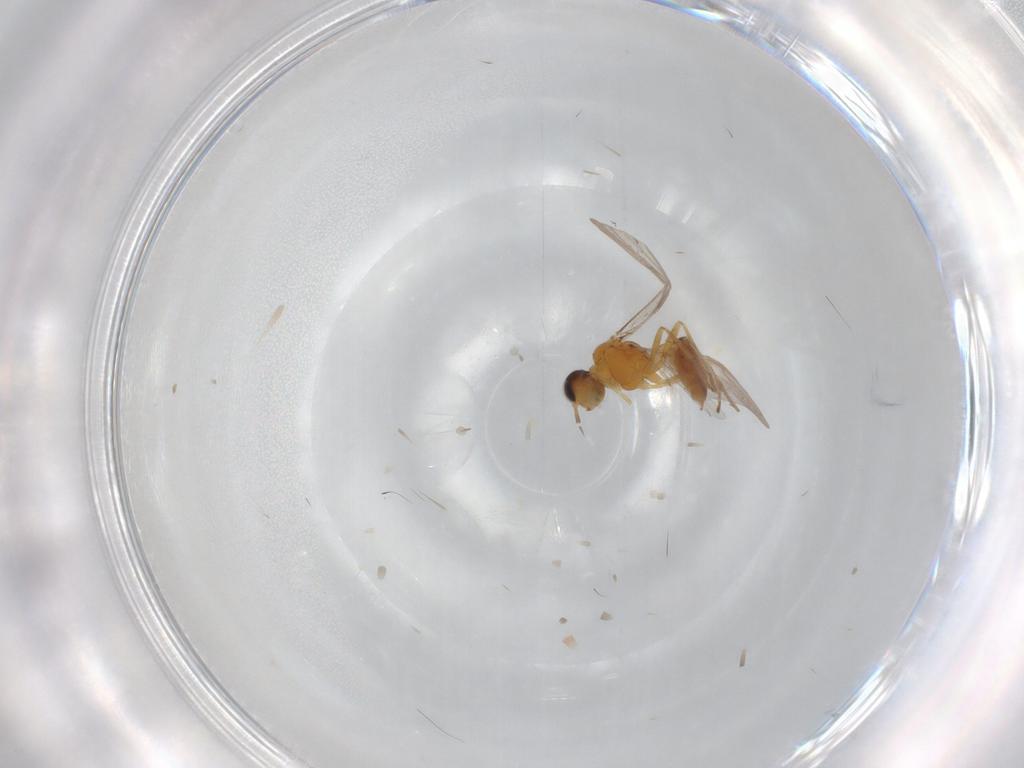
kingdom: Animalia
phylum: Arthropoda
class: Insecta
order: Hymenoptera
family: Braconidae
